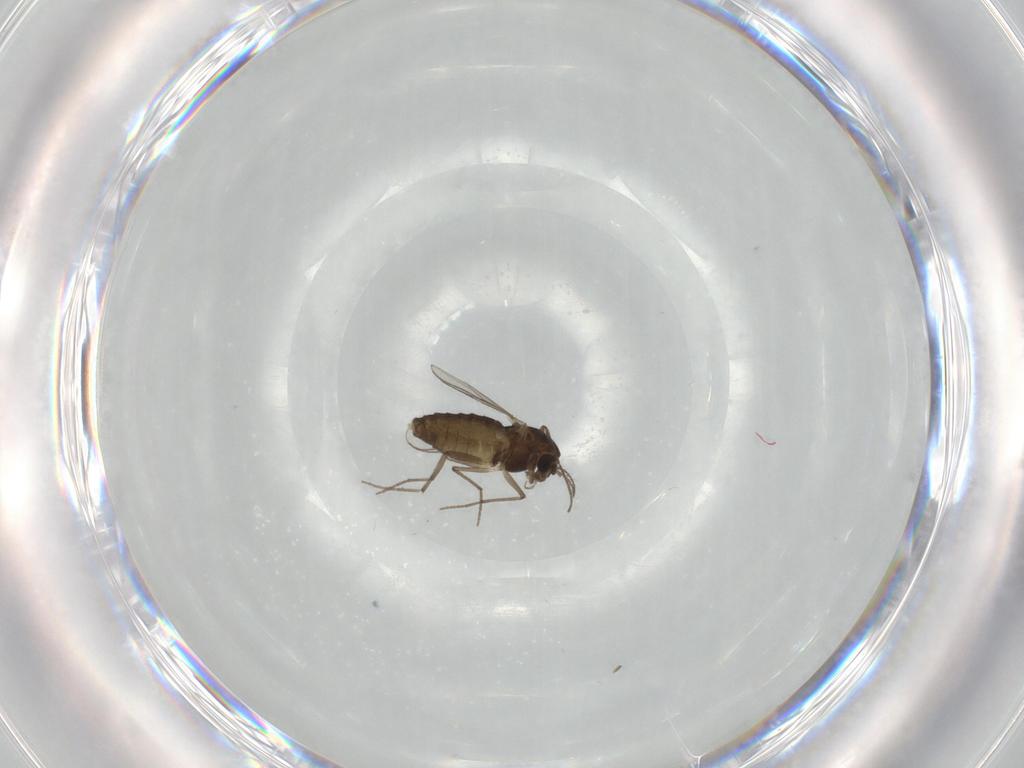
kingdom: Animalia
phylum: Arthropoda
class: Insecta
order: Diptera
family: Chironomidae
